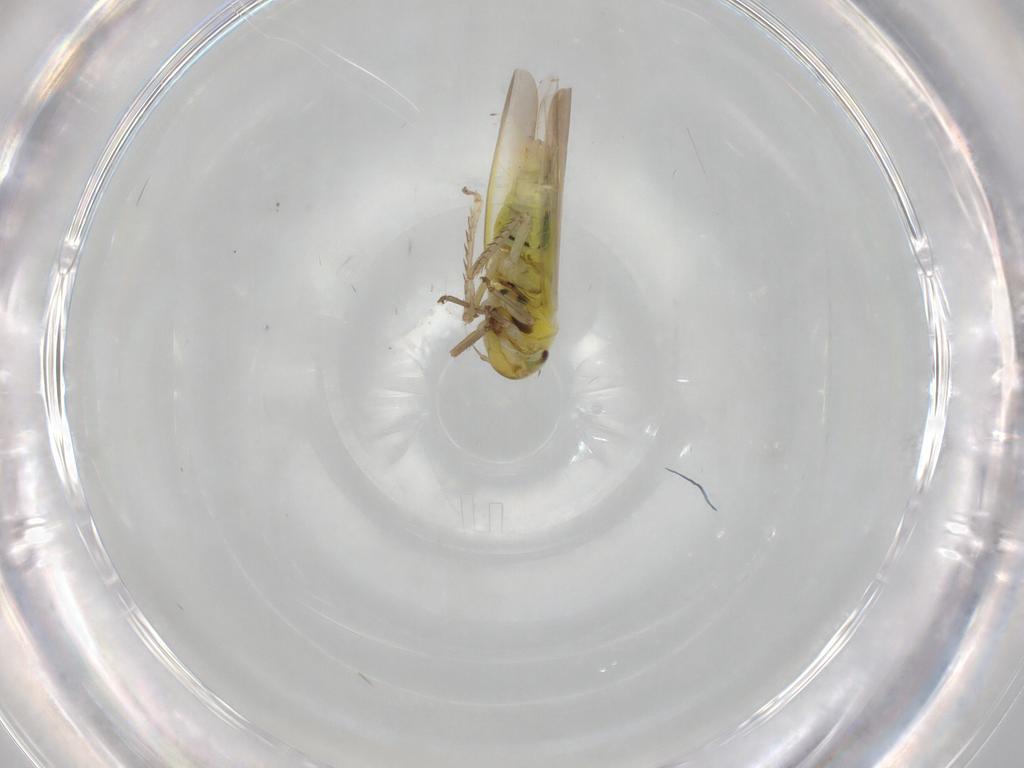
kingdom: Animalia
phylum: Arthropoda
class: Insecta
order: Hemiptera
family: Cicadellidae
